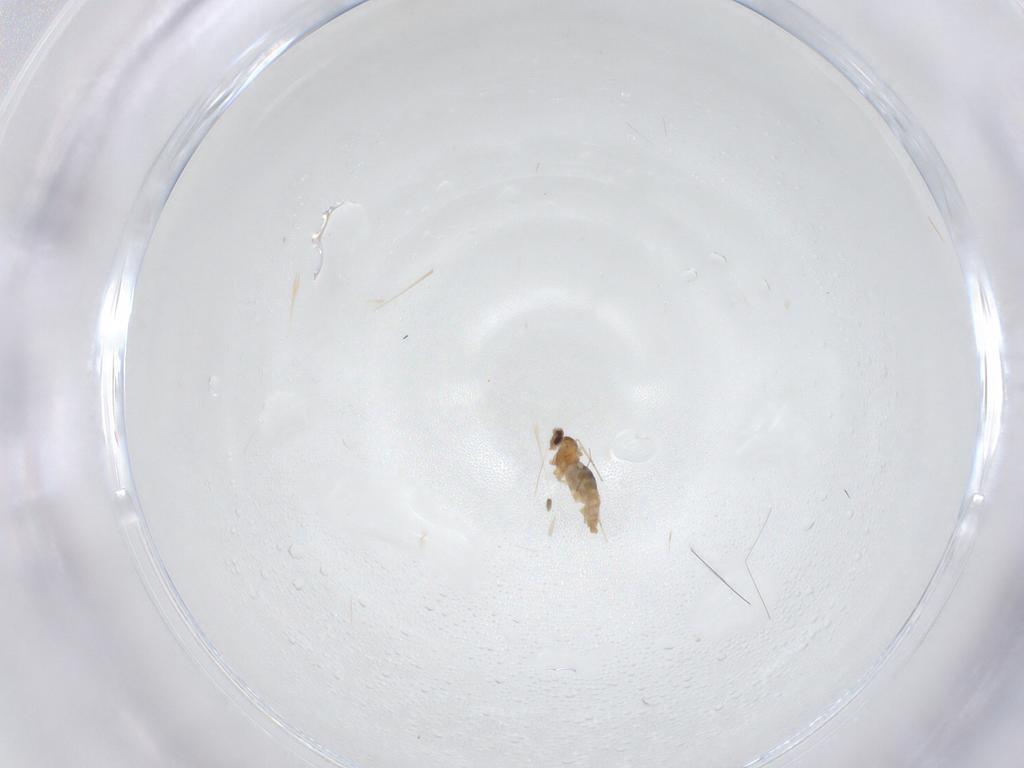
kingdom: Animalia
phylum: Arthropoda
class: Insecta
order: Diptera
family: Cecidomyiidae
